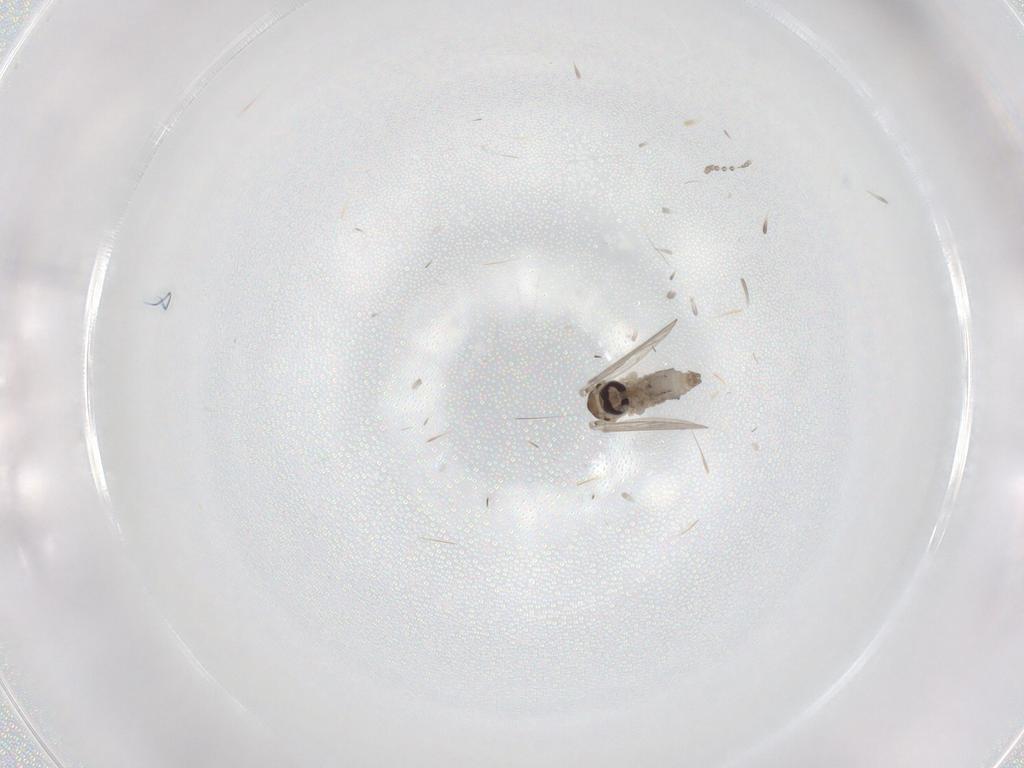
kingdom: Animalia
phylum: Arthropoda
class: Insecta
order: Diptera
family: Psychodidae
